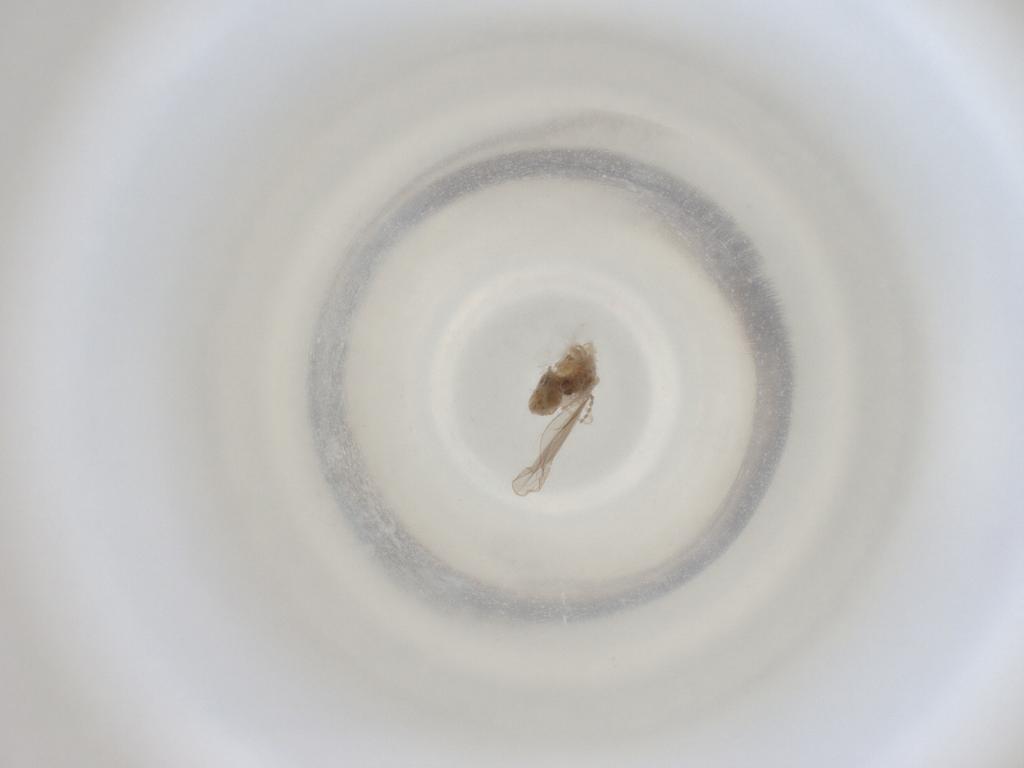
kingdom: Animalia
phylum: Arthropoda
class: Insecta
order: Diptera
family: Cecidomyiidae
